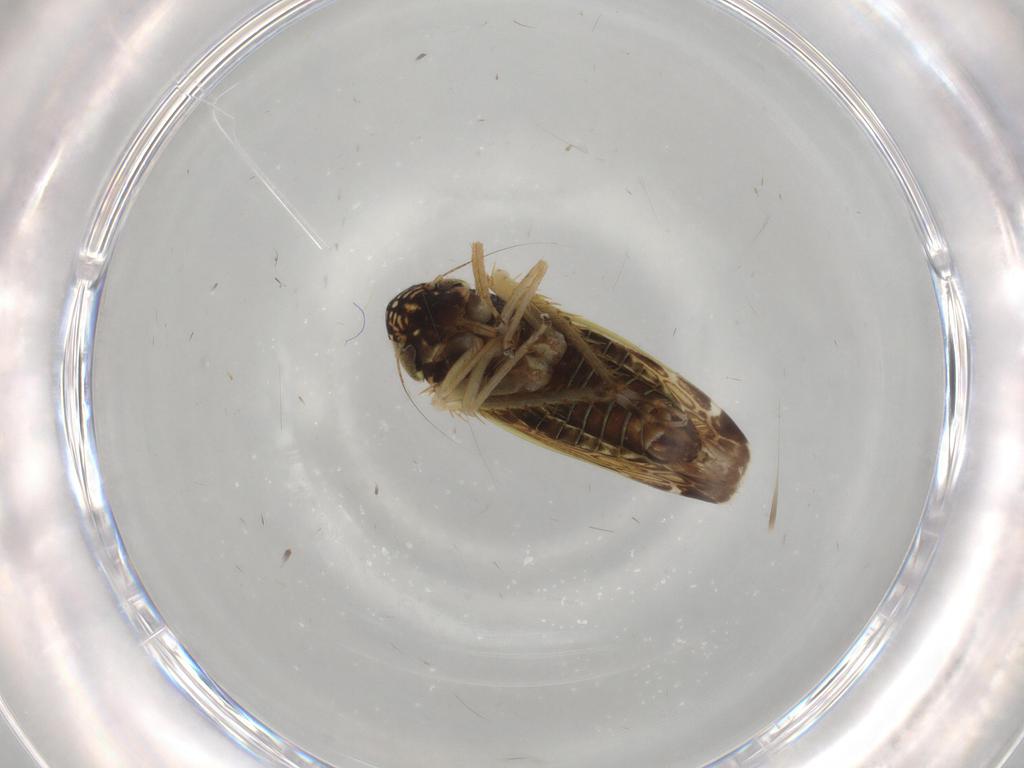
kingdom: Animalia
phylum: Arthropoda
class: Insecta
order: Hemiptera
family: Cicadellidae
